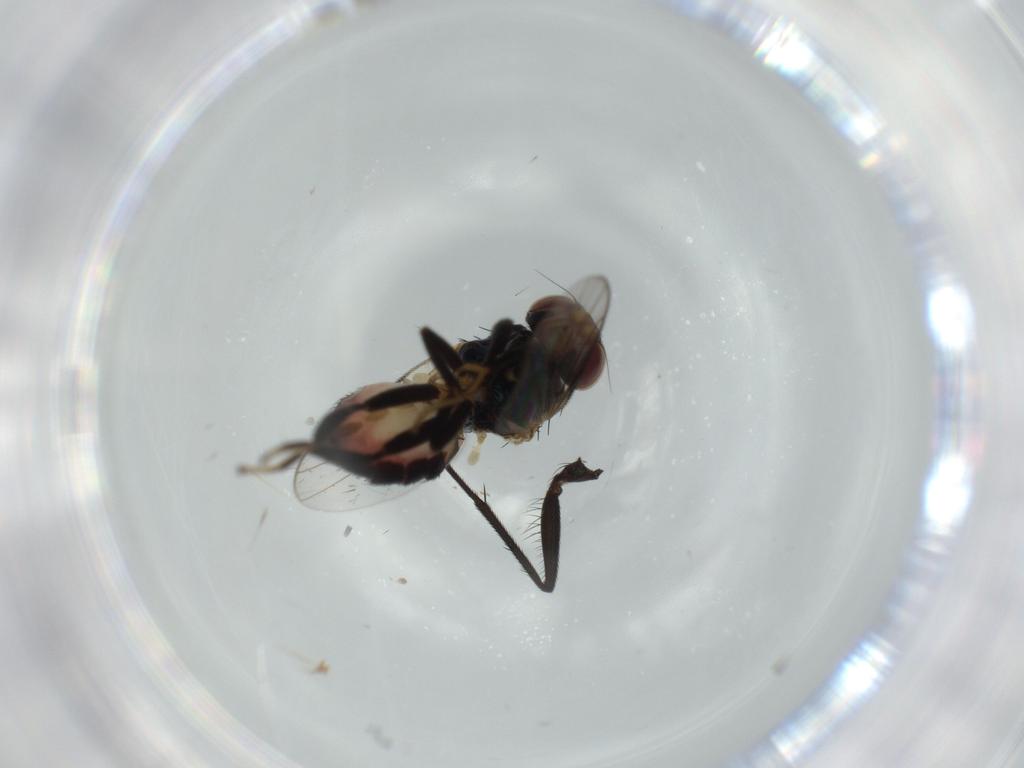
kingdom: Animalia
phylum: Arthropoda
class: Insecta
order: Diptera
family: Chloropidae
